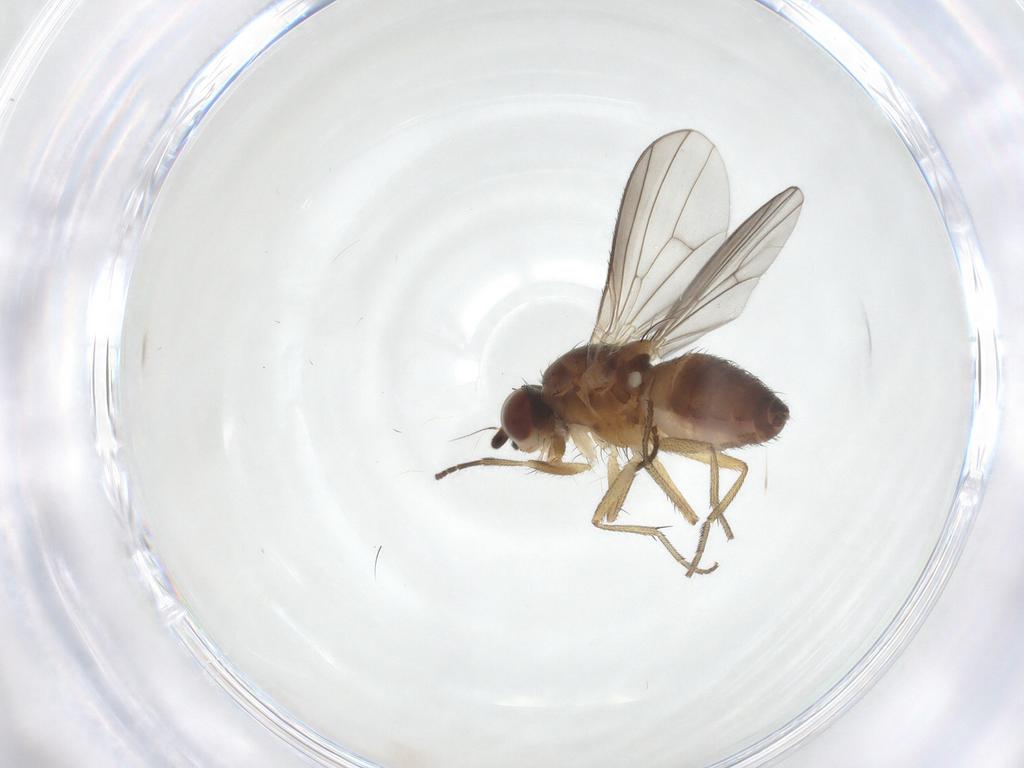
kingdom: Animalia
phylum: Arthropoda
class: Insecta
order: Diptera
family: Heleomyzidae
